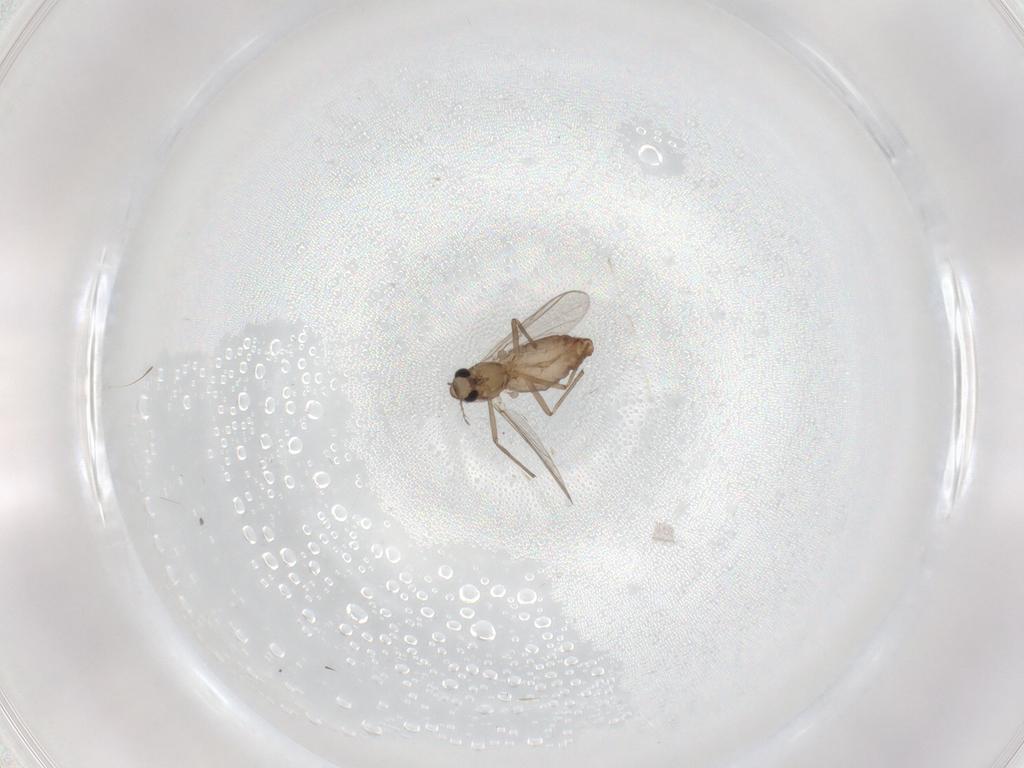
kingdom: Animalia
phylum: Arthropoda
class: Insecta
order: Diptera
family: Chironomidae
